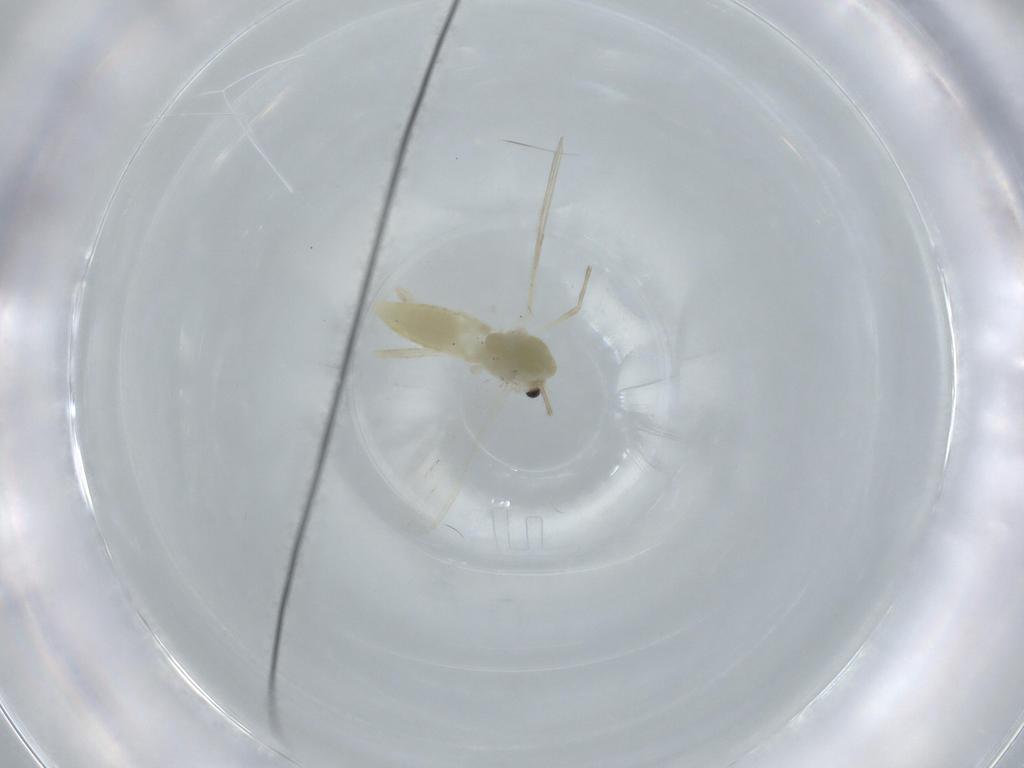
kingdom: Animalia
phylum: Arthropoda
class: Insecta
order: Diptera
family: Chironomidae
